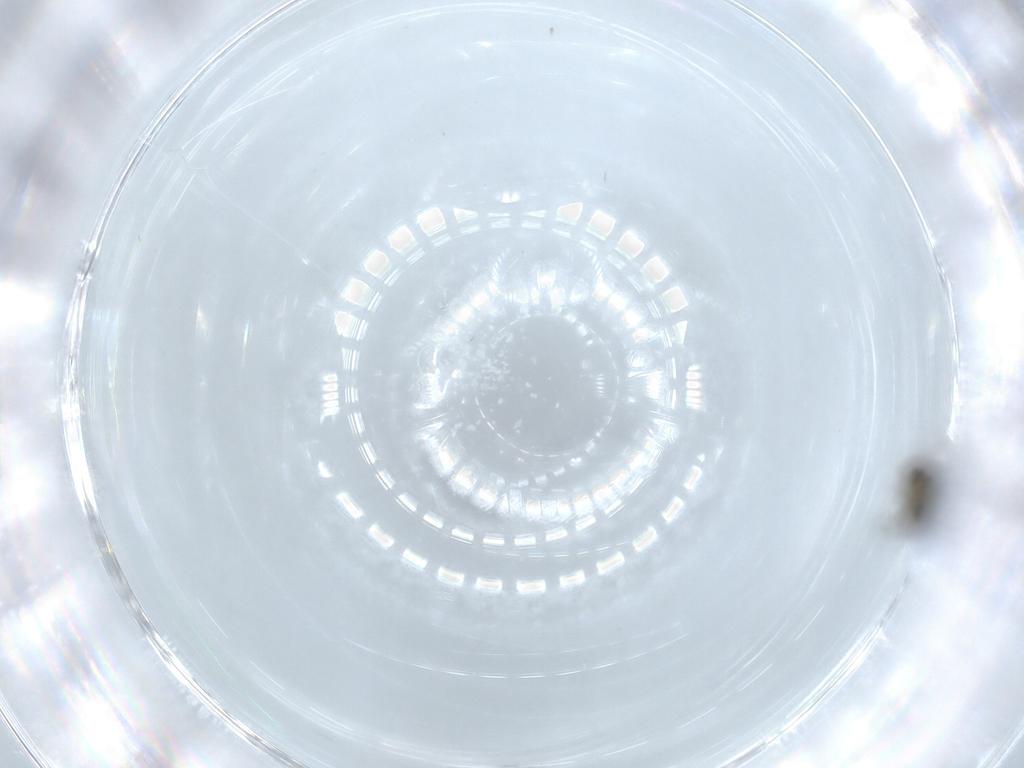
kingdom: Animalia
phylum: Arthropoda
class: Insecta
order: Diptera
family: Chironomidae
